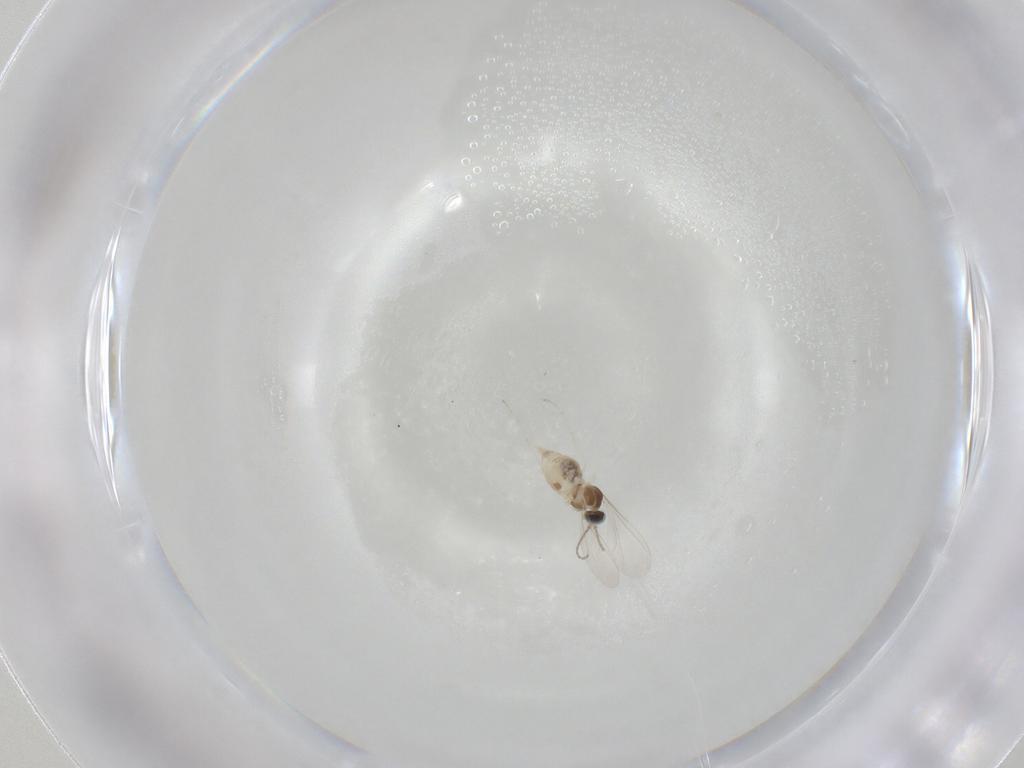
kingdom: Animalia
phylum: Arthropoda
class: Insecta
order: Diptera
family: Cecidomyiidae
